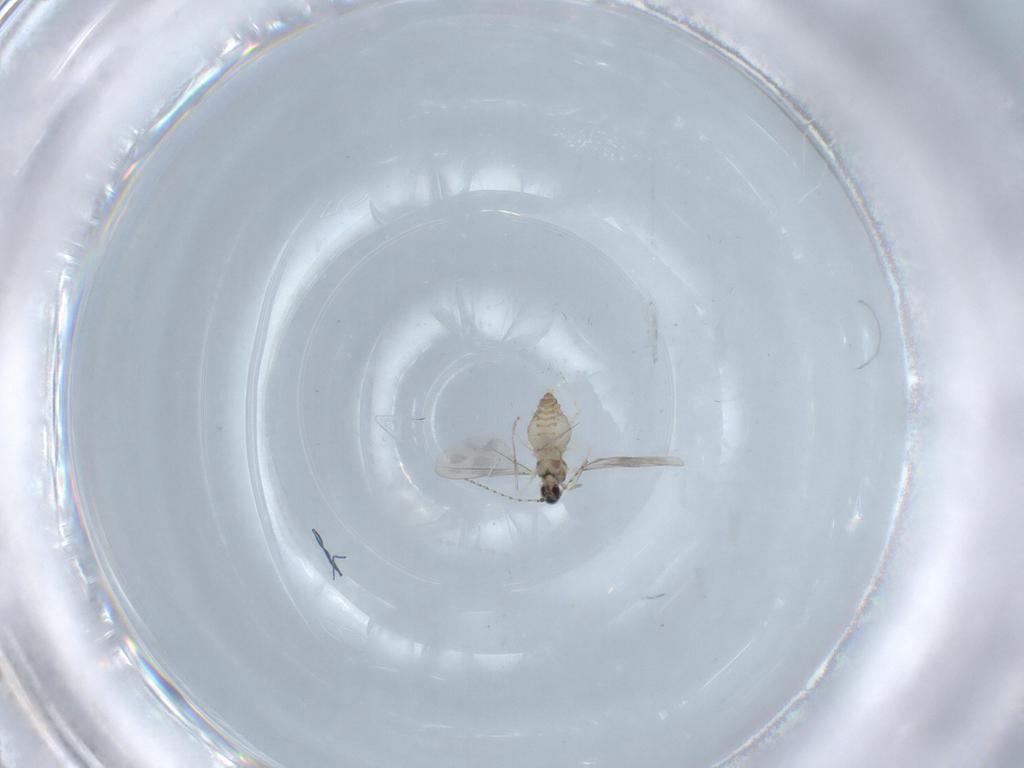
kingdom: Animalia
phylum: Arthropoda
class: Insecta
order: Diptera
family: Cecidomyiidae
